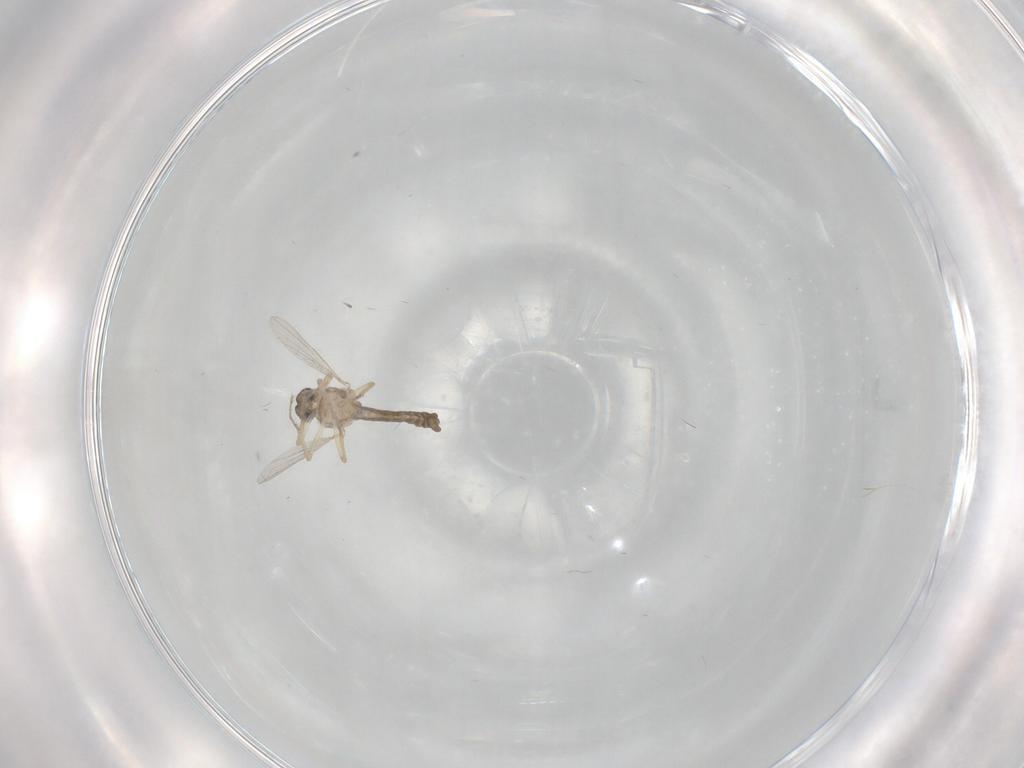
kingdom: Animalia
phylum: Arthropoda
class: Insecta
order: Diptera
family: Ceratopogonidae
